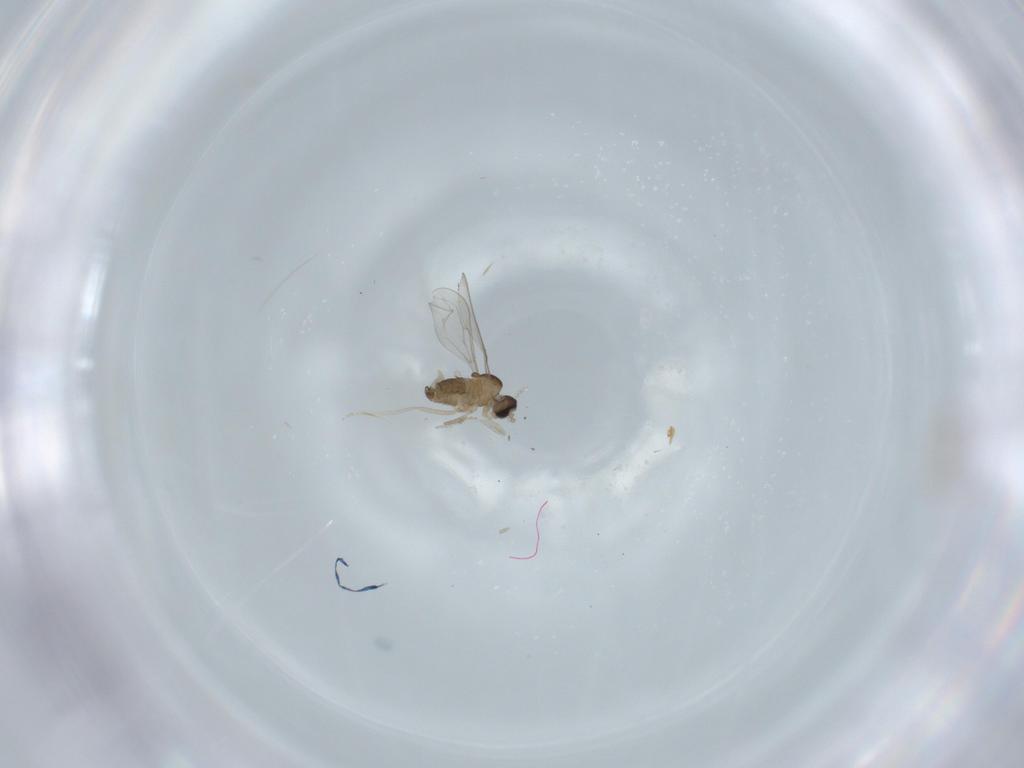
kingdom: Animalia
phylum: Arthropoda
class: Insecta
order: Diptera
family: Cecidomyiidae
